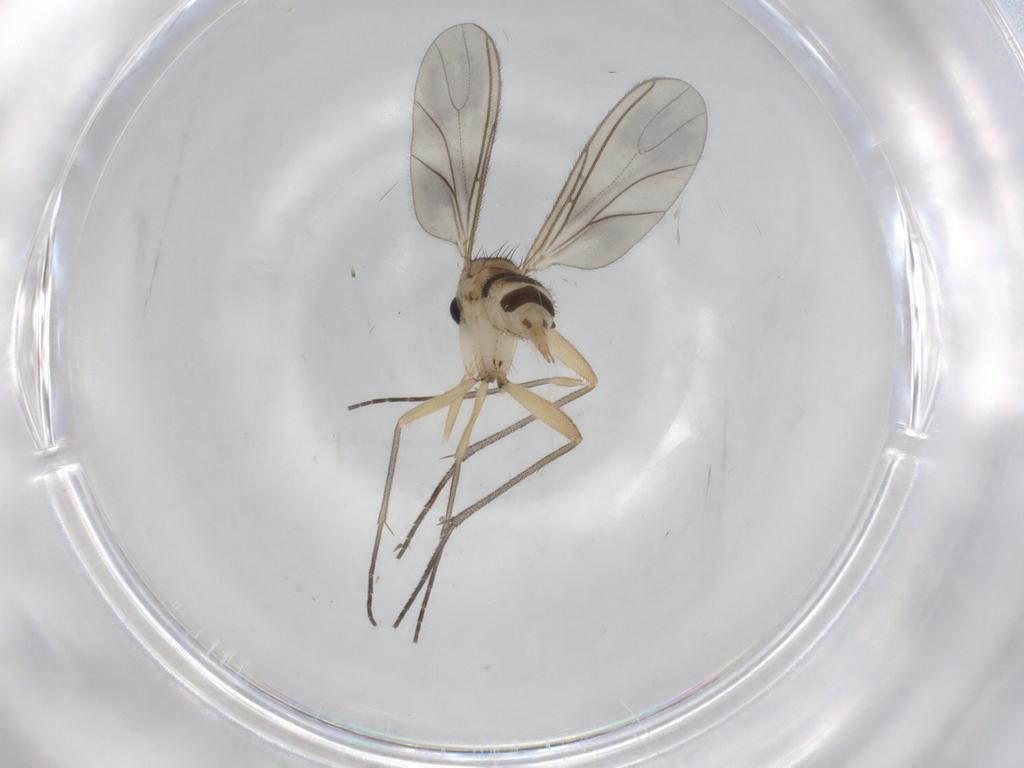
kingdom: Animalia
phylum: Arthropoda
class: Insecta
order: Diptera
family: Sciaridae
